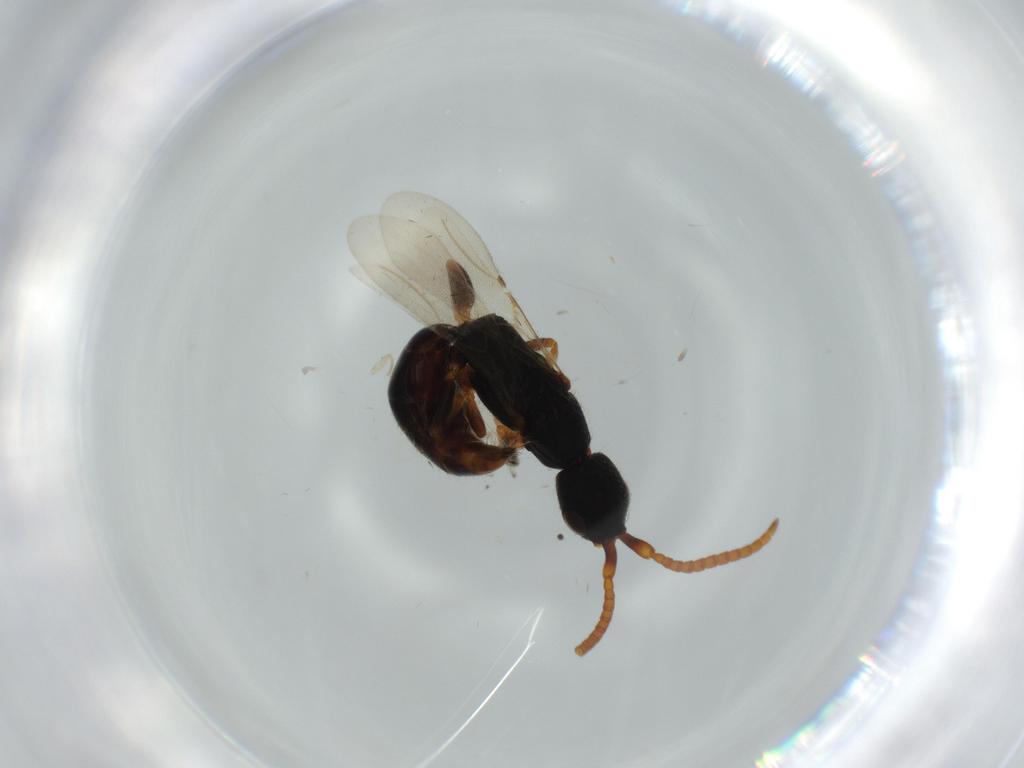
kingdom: Animalia
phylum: Arthropoda
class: Insecta
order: Hymenoptera
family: Bethylidae
